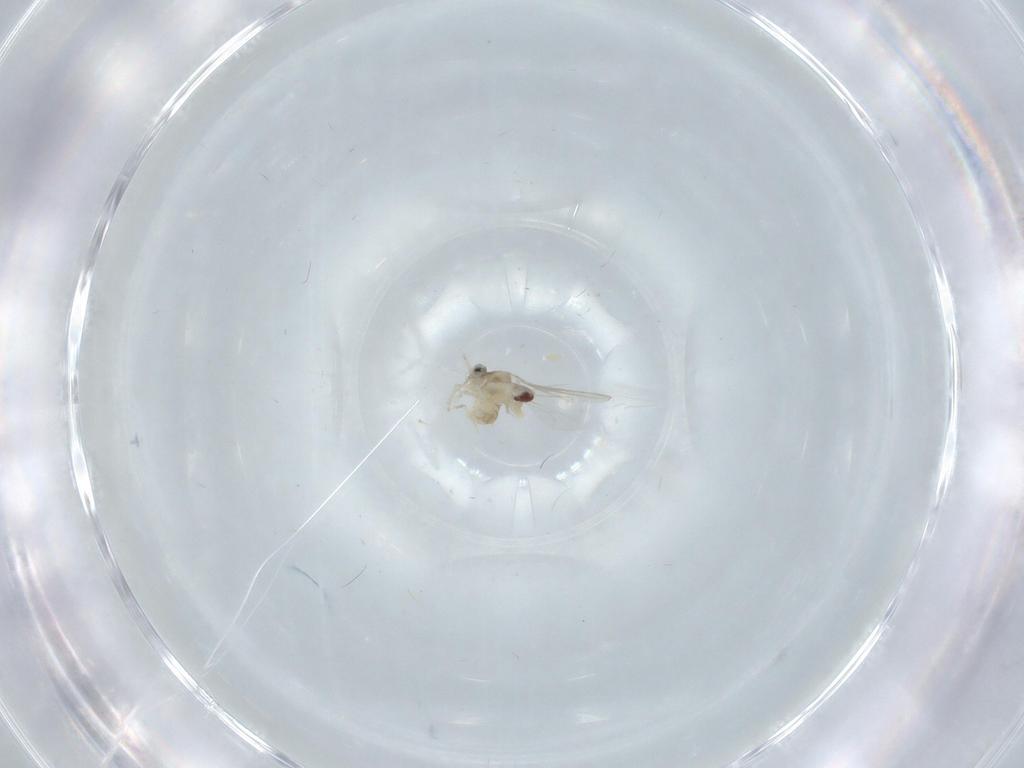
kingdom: Animalia
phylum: Arthropoda
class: Insecta
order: Diptera
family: Cecidomyiidae
